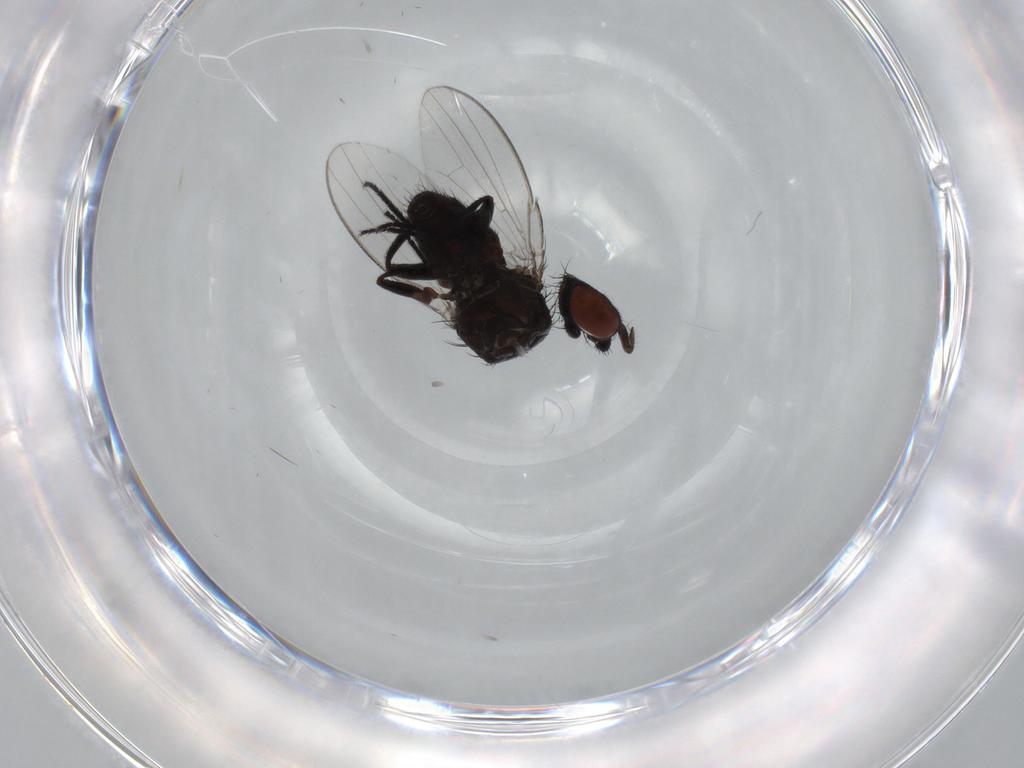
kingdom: Animalia
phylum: Arthropoda
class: Insecta
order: Diptera
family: Milichiidae
